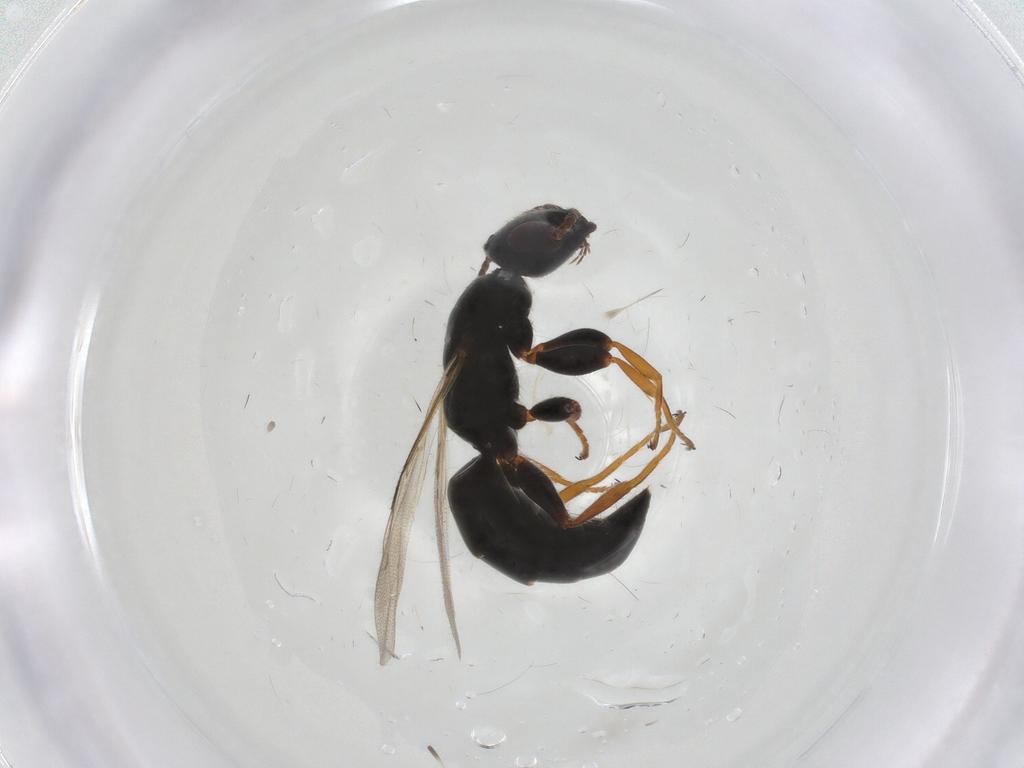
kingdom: Animalia
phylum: Arthropoda
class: Insecta
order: Hymenoptera
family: Bethylidae
